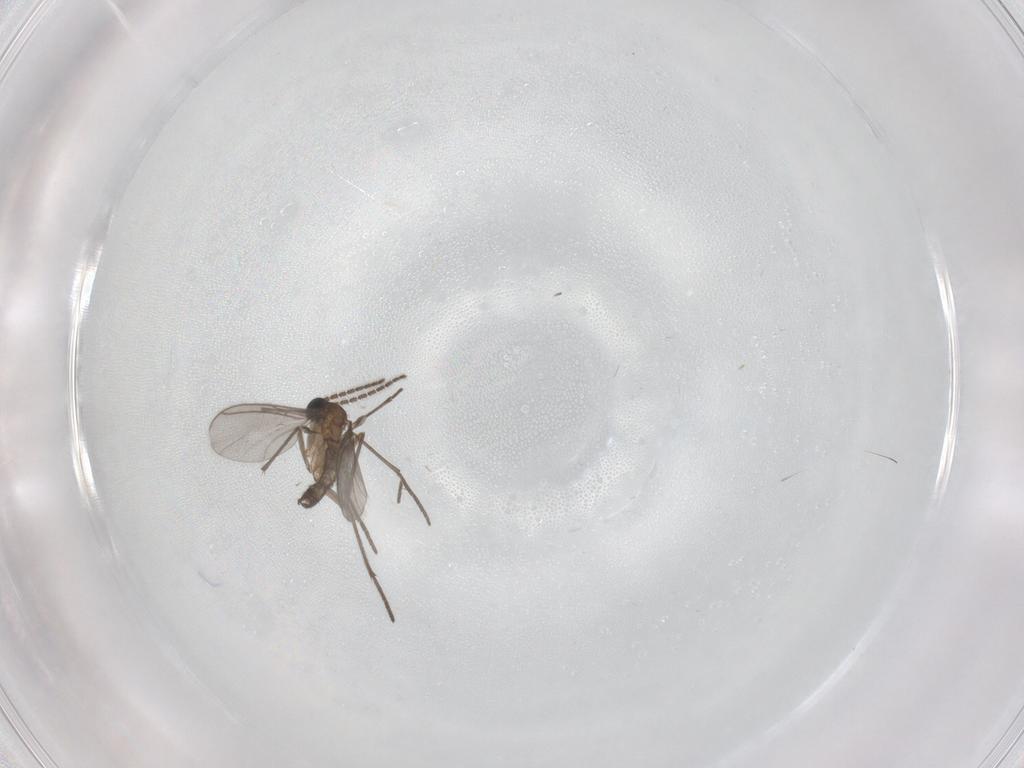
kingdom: Animalia
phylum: Arthropoda
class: Insecta
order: Diptera
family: Sciaridae
